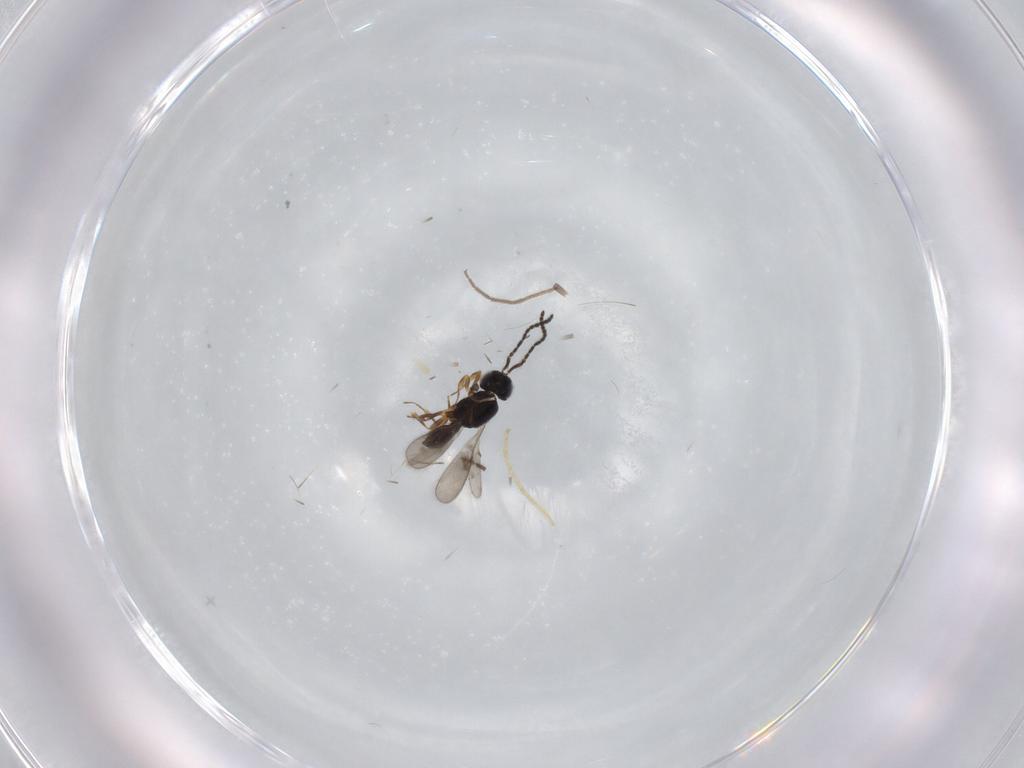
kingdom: Animalia
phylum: Arthropoda
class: Insecta
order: Hymenoptera
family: Scelionidae
